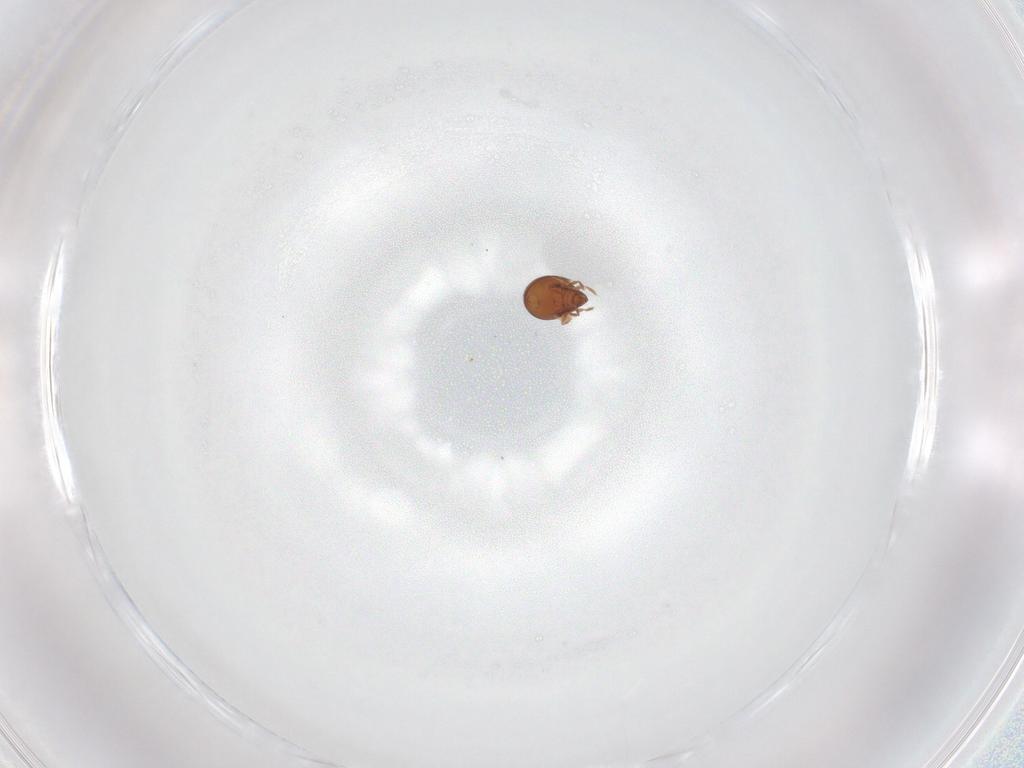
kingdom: Animalia
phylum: Arthropoda
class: Arachnida
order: Sarcoptiformes
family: Haplozetidae
